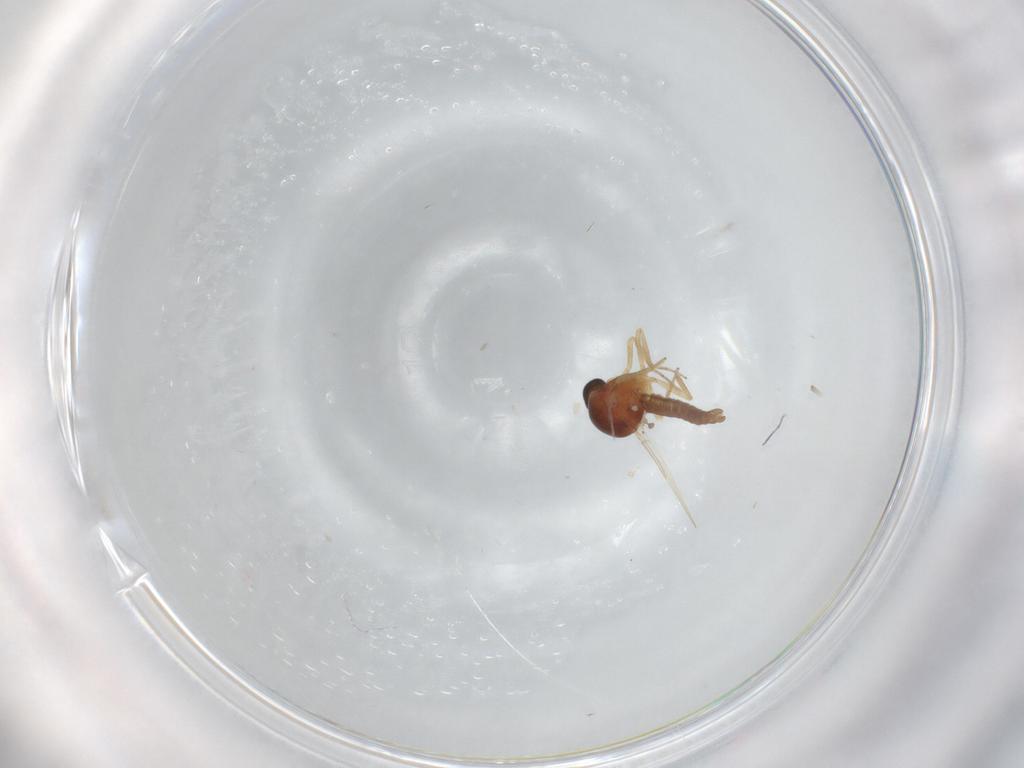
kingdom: Animalia
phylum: Arthropoda
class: Insecta
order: Diptera
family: Ceratopogonidae
